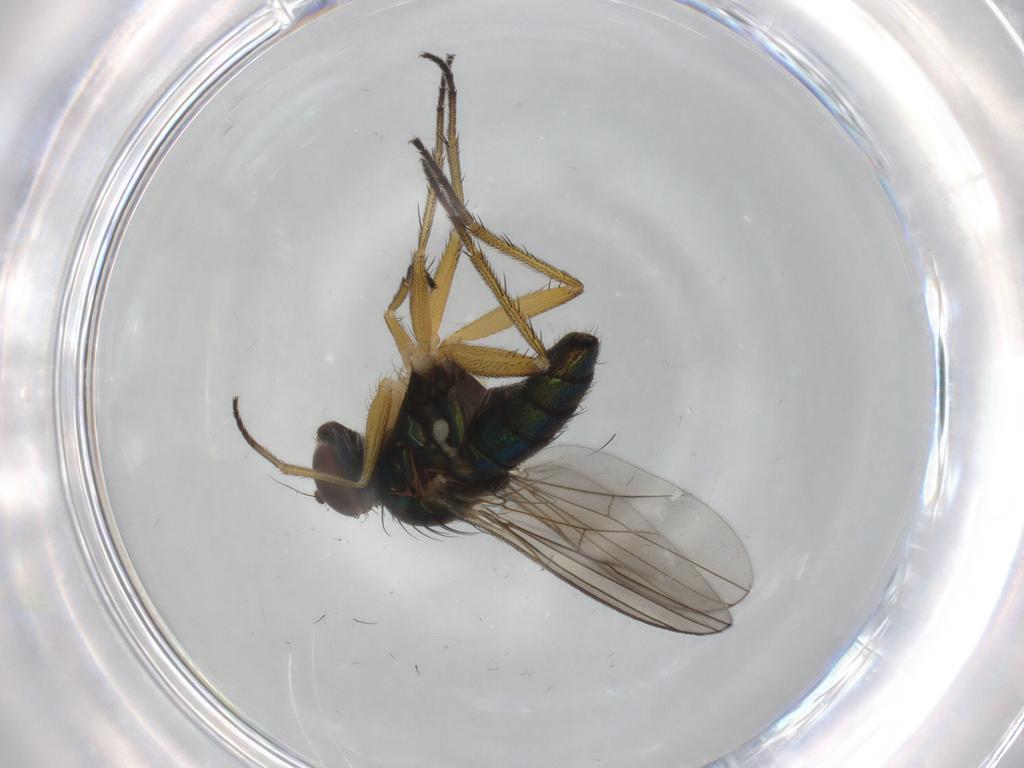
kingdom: Animalia
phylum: Arthropoda
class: Insecta
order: Diptera
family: Dolichopodidae
